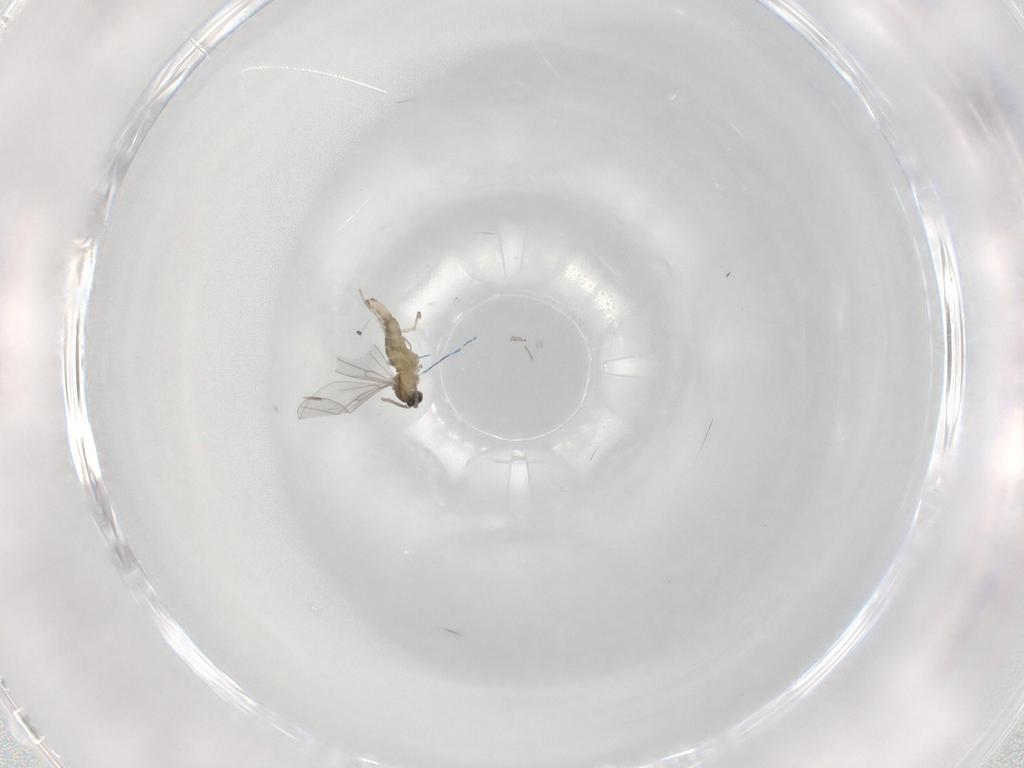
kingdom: Animalia
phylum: Arthropoda
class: Insecta
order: Diptera
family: Cecidomyiidae
